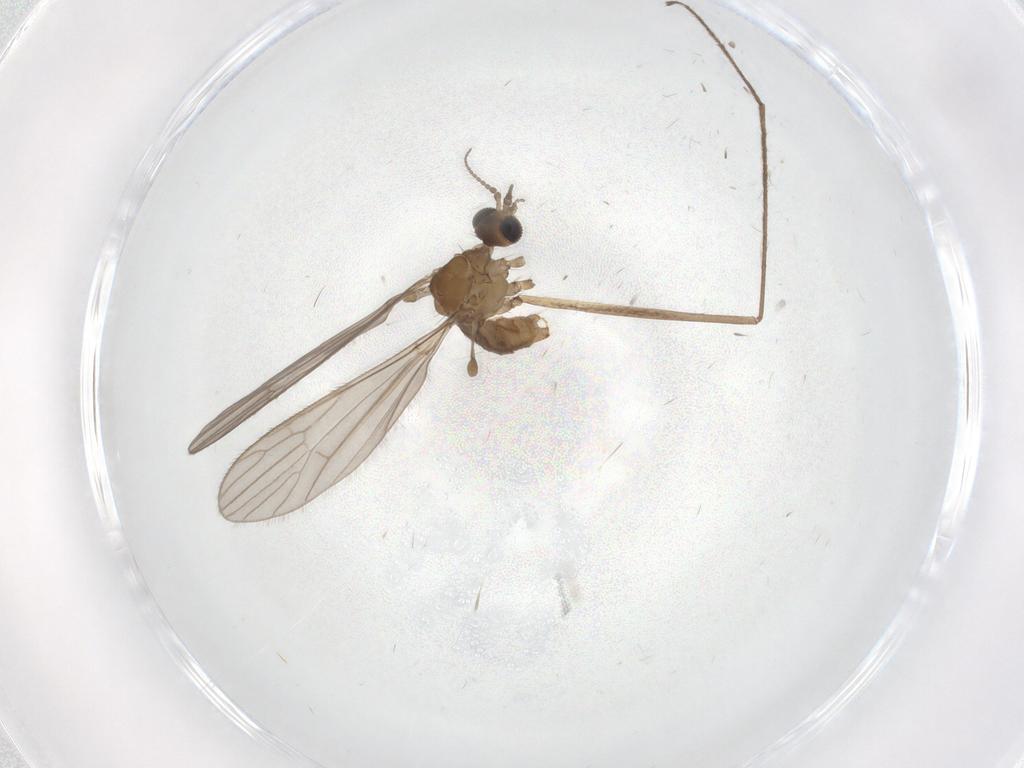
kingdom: Animalia
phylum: Arthropoda
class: Insecta
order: Diptera
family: Limoniidae
